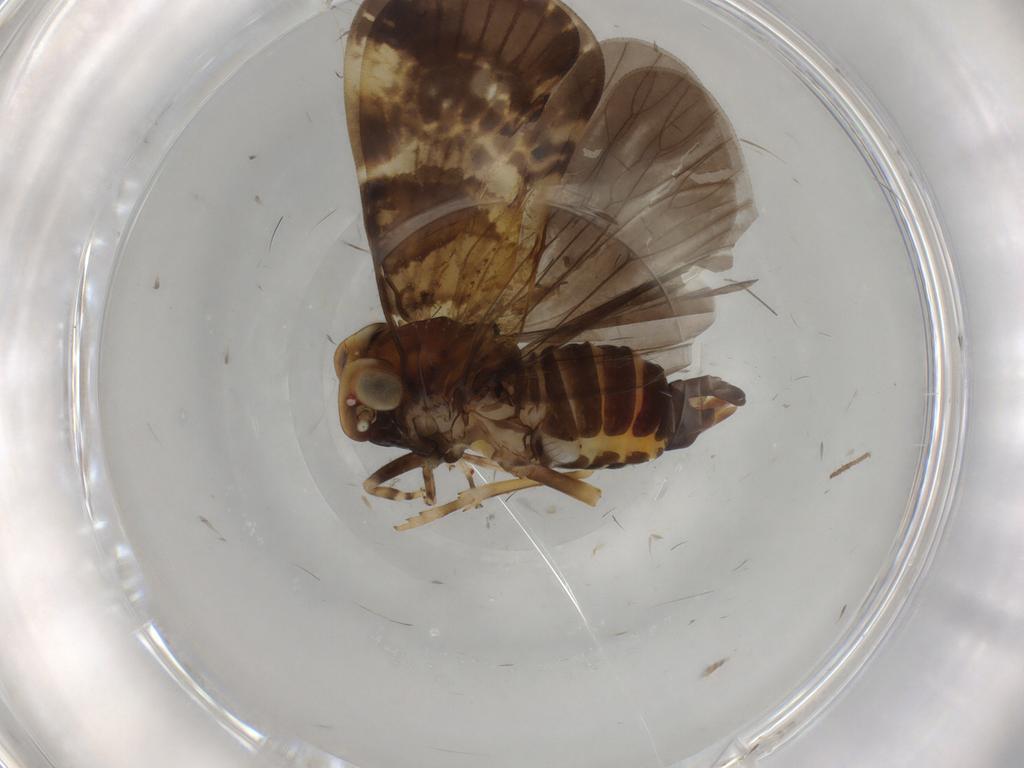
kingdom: Animalia
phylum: Arthropoda
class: Insecta
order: Hemiptera
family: Cixiidae
